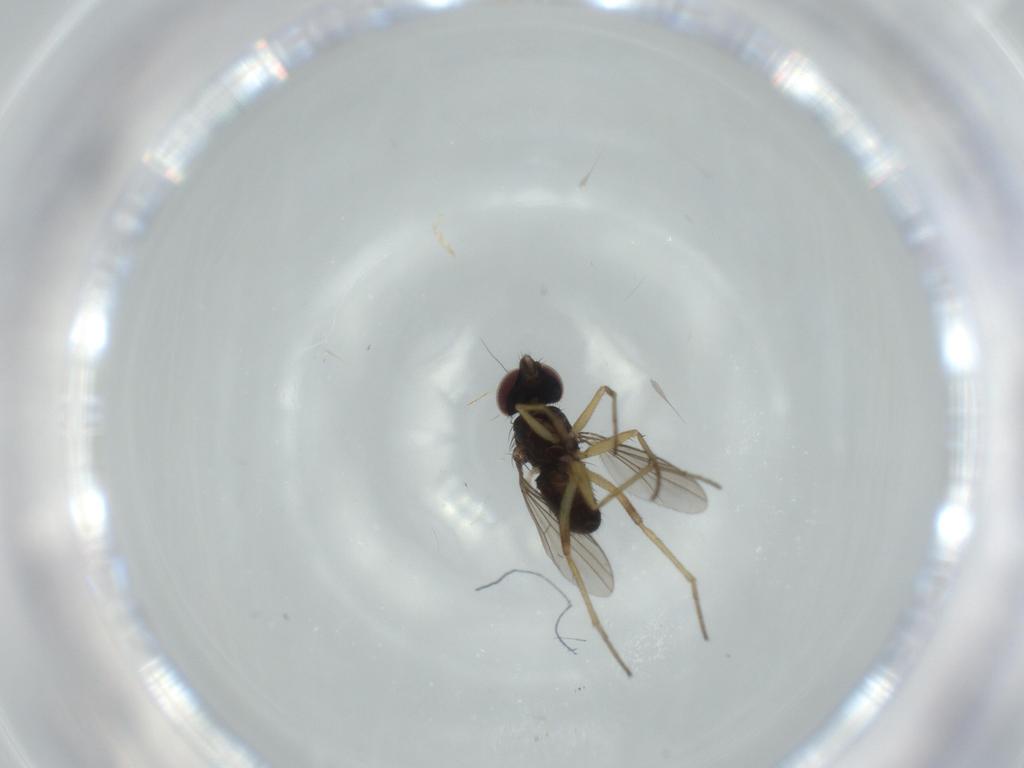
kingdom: Animalia
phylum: Arthropoda
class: Insecta
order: Diptera
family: Dolichopodidae
